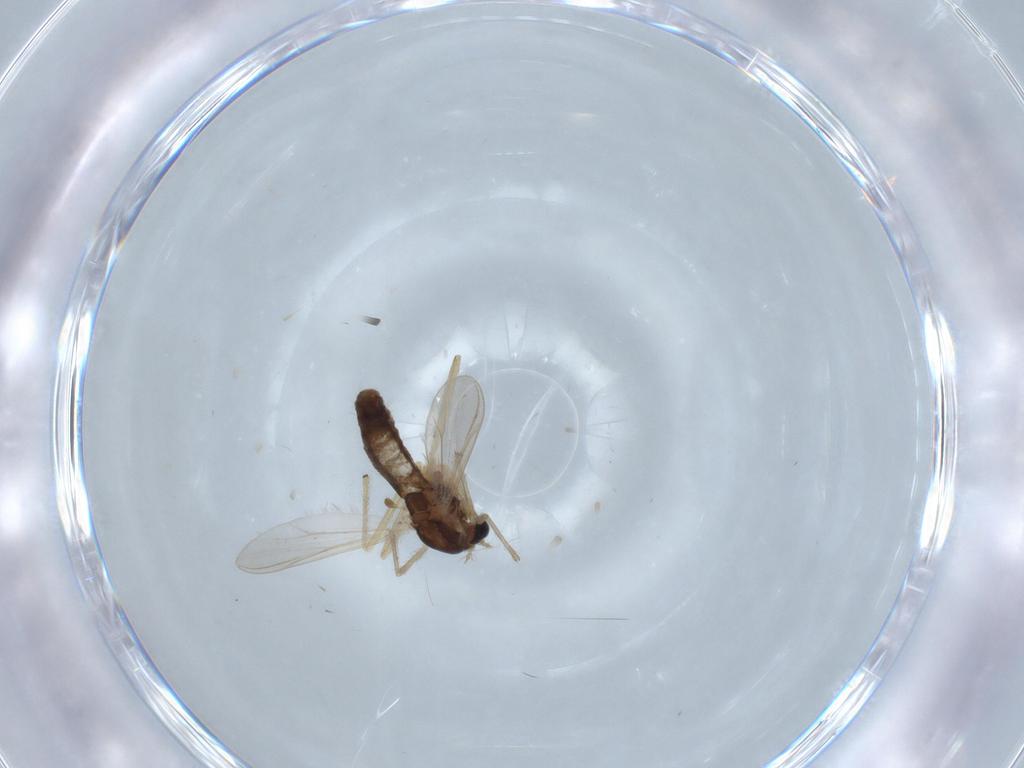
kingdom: Animalia
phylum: Arthropoda
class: Insecta
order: Diptera
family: Chironomidae
